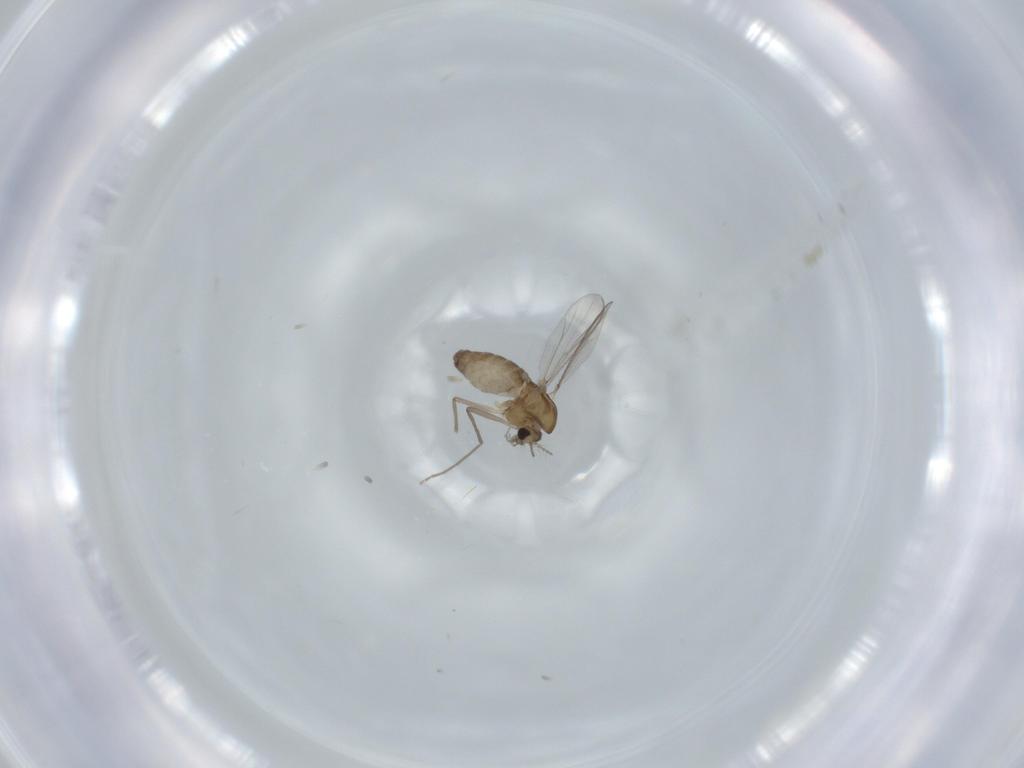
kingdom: Animalia
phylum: Arthropoda
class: Insecta
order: Diptera
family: Chironomidae
